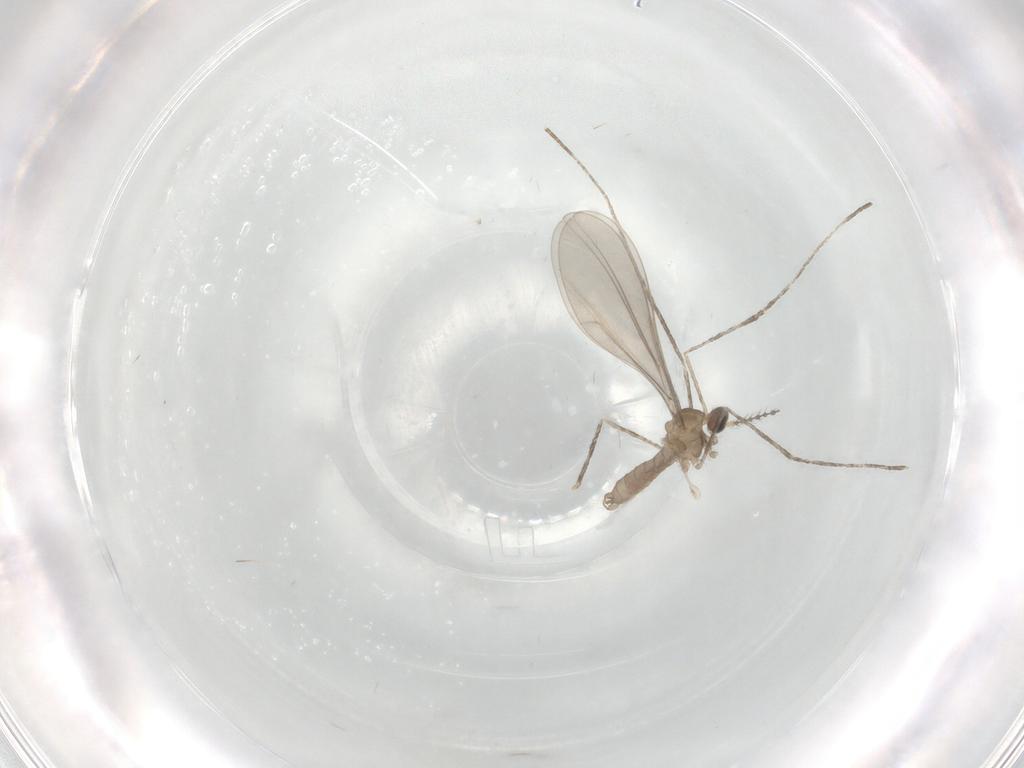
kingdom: Animalia
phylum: Arthropoda
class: Insecta
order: Diptera
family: Cecidomyiidae
